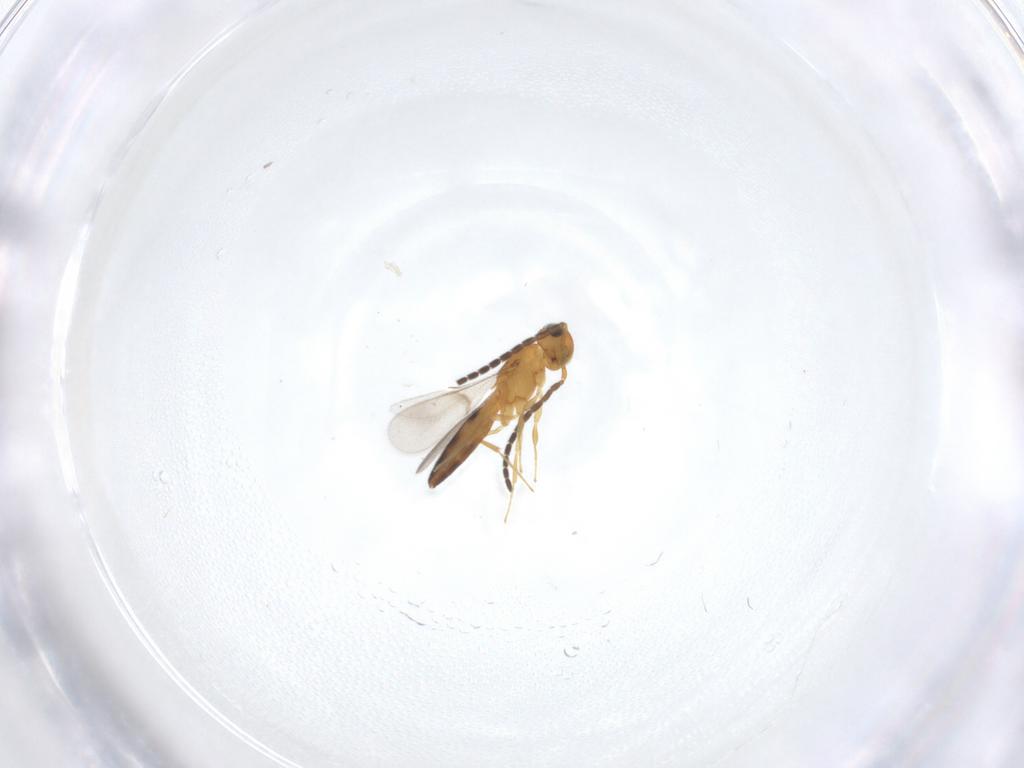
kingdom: Animalia
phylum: Arthropoda
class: Insecta
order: Hymenoptera
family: Scelionidae
